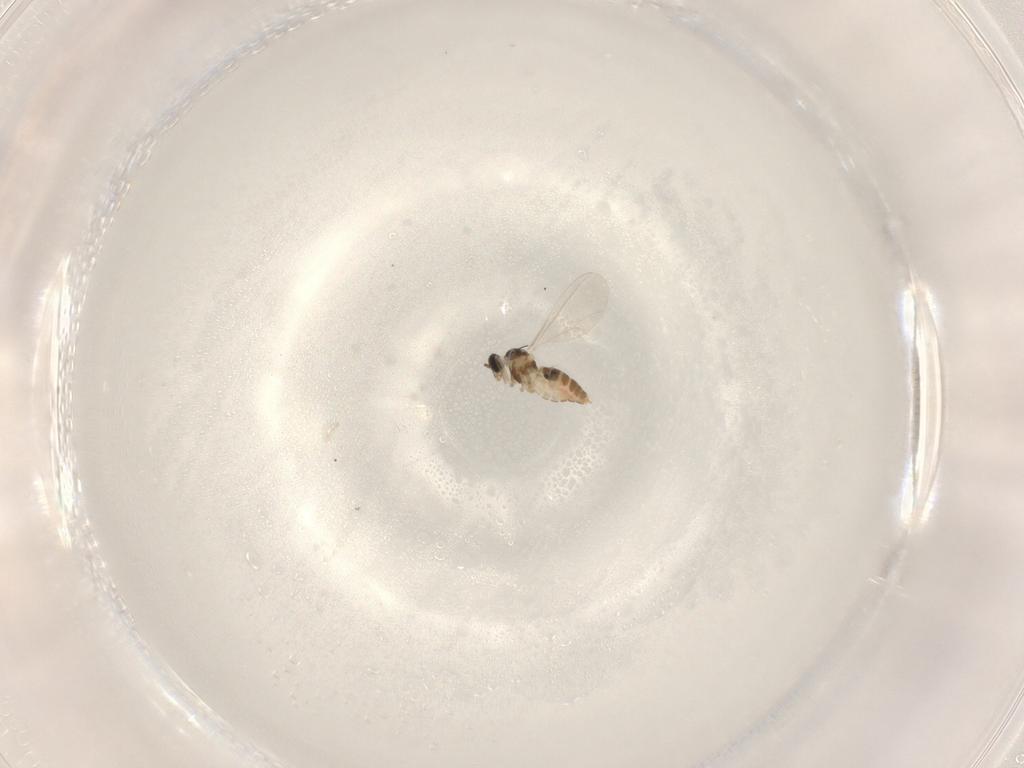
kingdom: Animalia
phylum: Arthropoda
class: Insecta
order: Diptera
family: Cecidomyiidae
